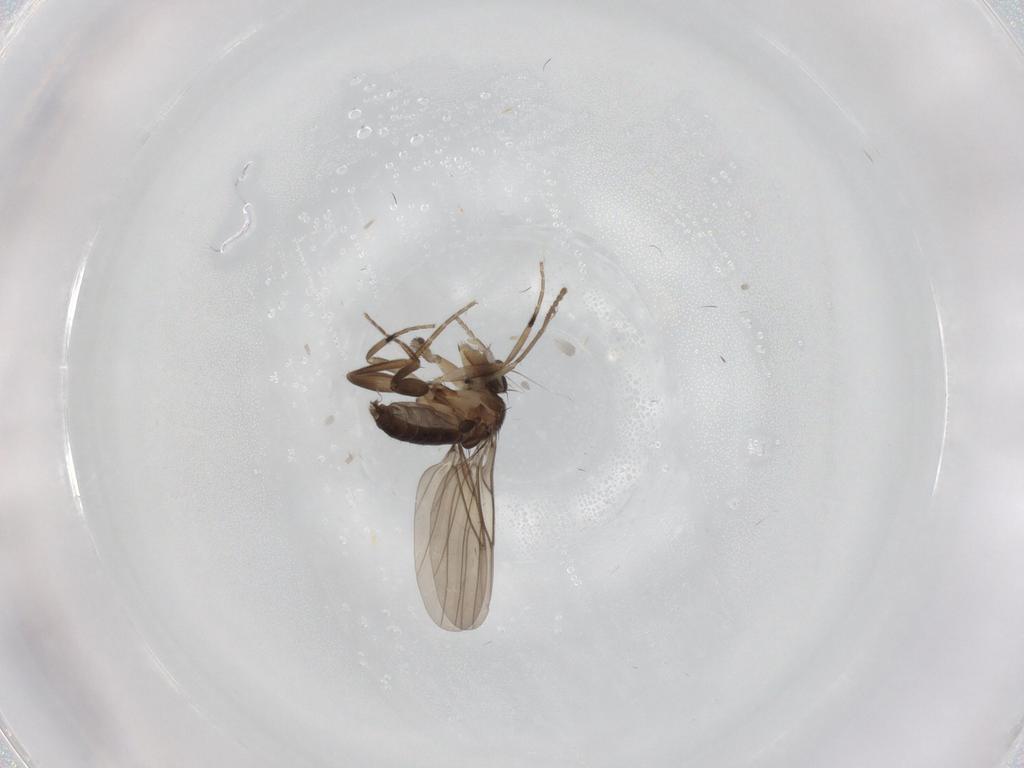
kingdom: Animalia
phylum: Arthropoda
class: Insecta
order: Diptera
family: Psychodidae
